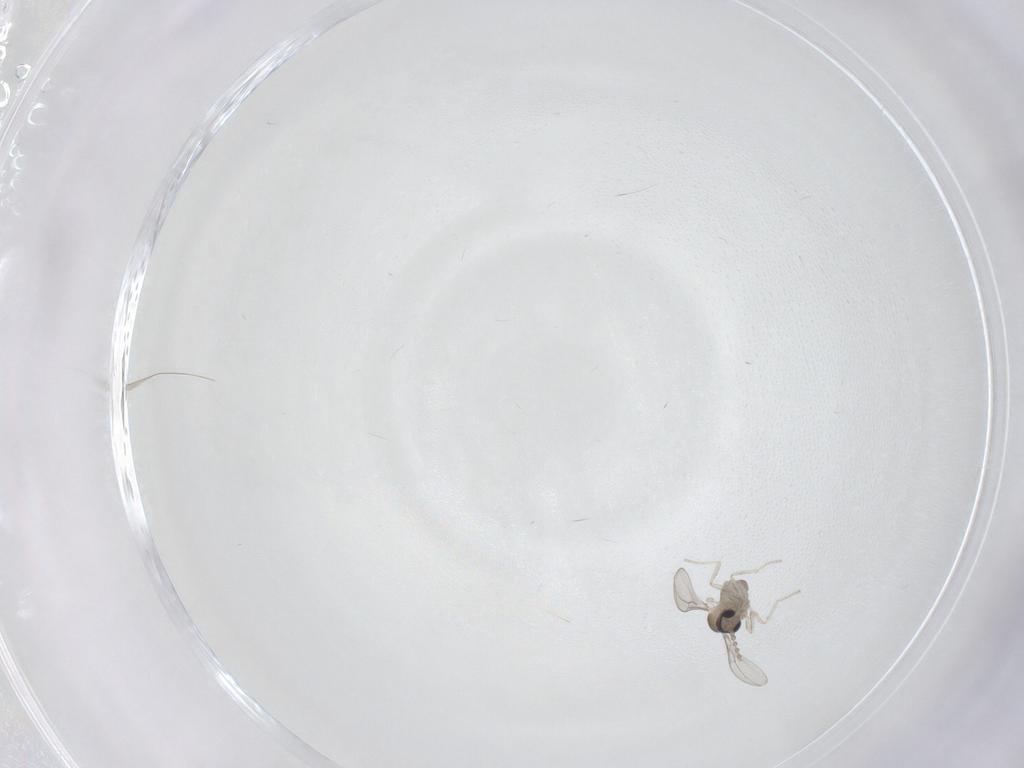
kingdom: Animalia
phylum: Arthropoda
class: Insecta
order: Diptera
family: Cecidomyiidae
